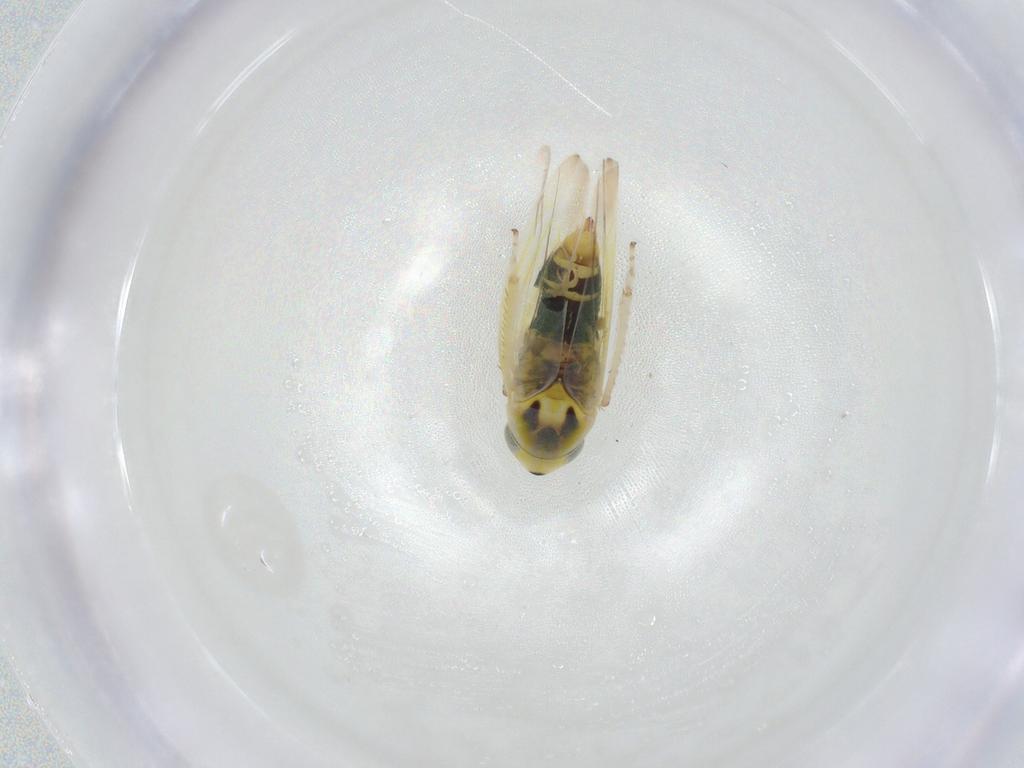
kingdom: Animalia
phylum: Arthropoda
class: Insecta
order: Hemiptera
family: Cicadellidae
